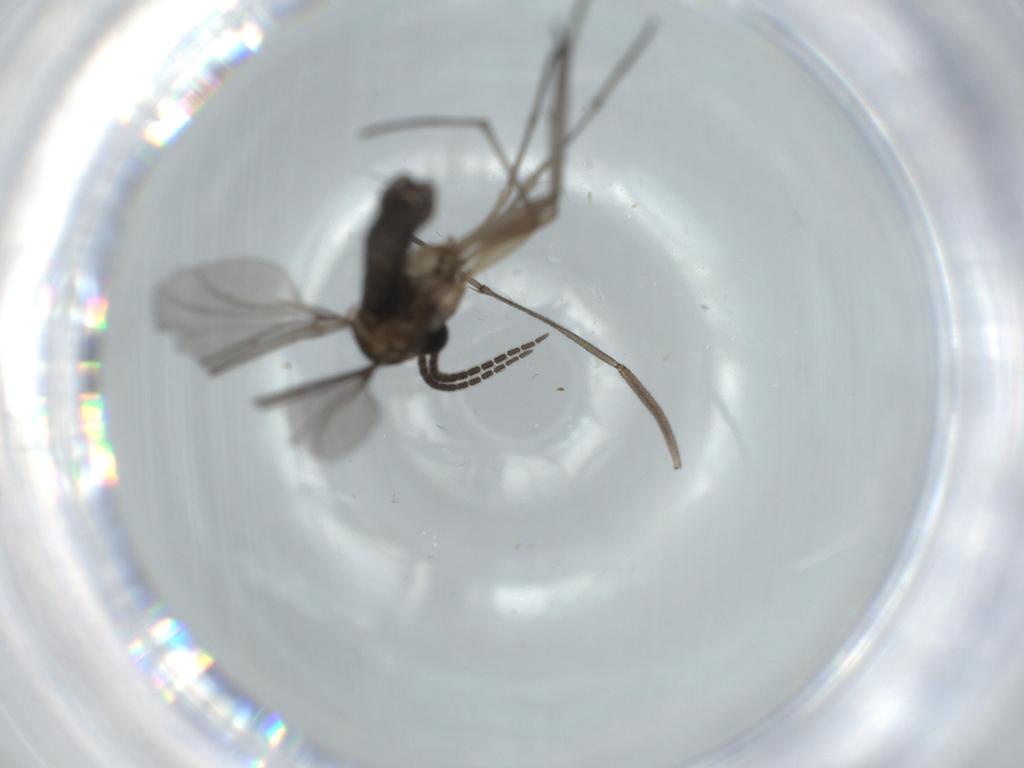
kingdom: Animalia
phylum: Arthropoda
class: Insecta
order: Diptera
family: Sciaridae
